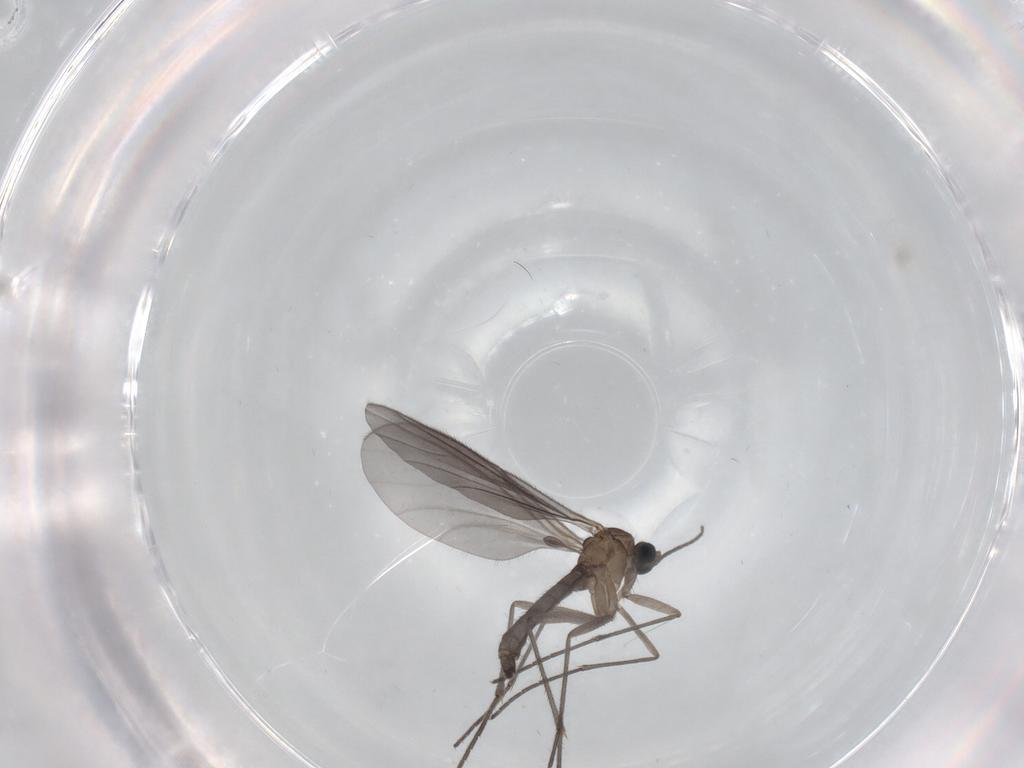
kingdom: Animalia
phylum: Arthropoda
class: Insecta
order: Diptera
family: Sciaridae
